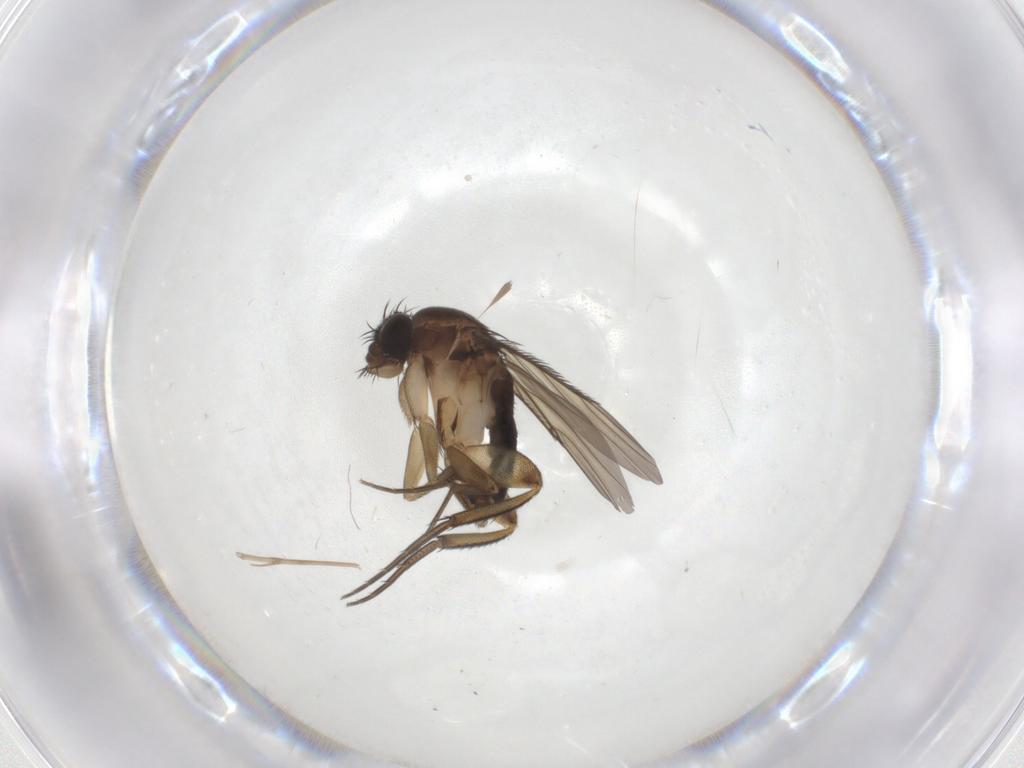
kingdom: Animalia
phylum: Arthropoda
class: Insecta
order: Diptera
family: Phoridae
